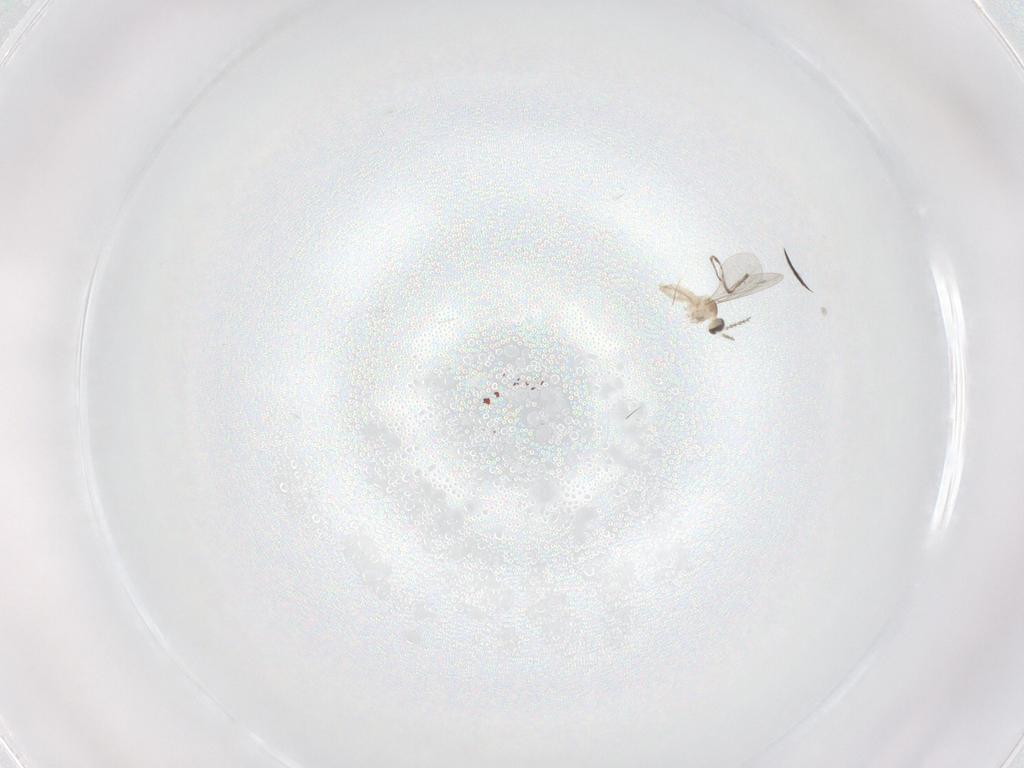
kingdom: Animalia
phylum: Arthropoda
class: Insecta
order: Diptera
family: Cecidomyiidae
